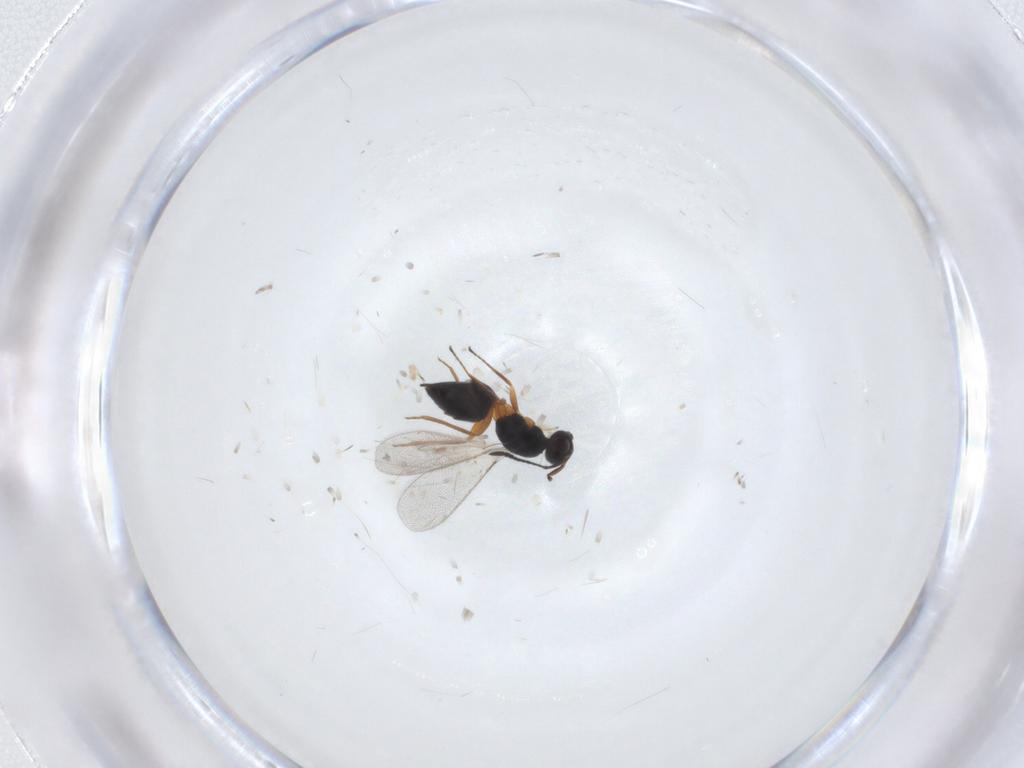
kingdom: Animalia
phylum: Arthropoda
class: Insecta
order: Hymenoptera
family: Mymaridae
